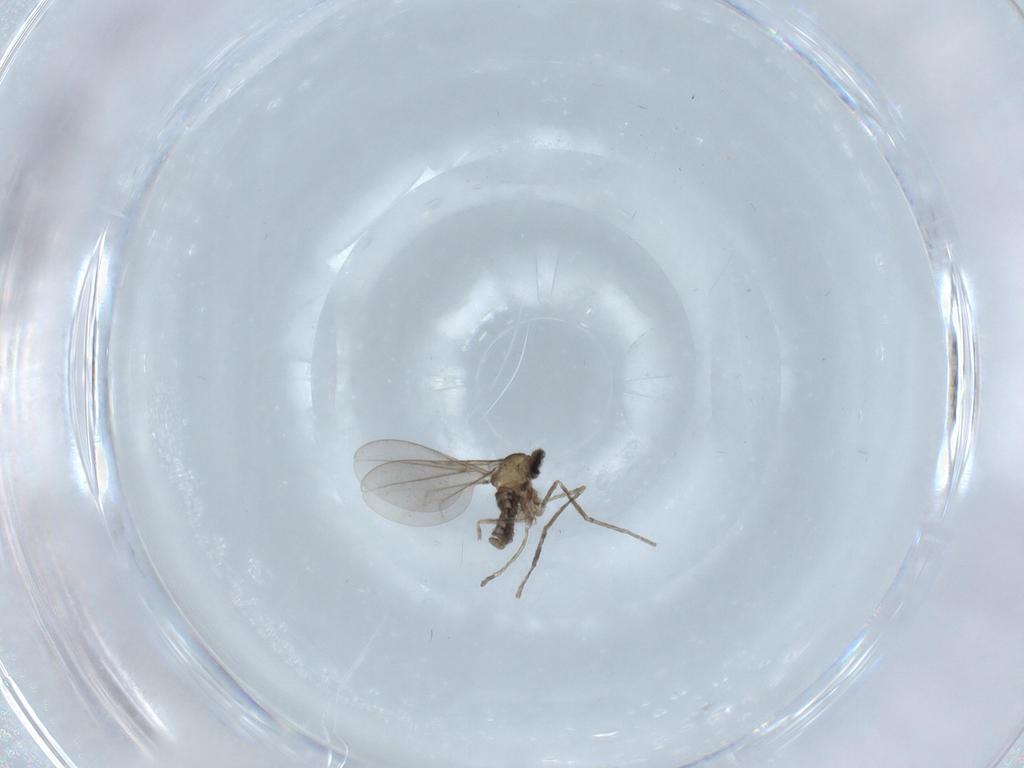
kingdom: Animalia
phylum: Arthropoda
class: Insecta
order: Diptera
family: Cecidomyiidae
